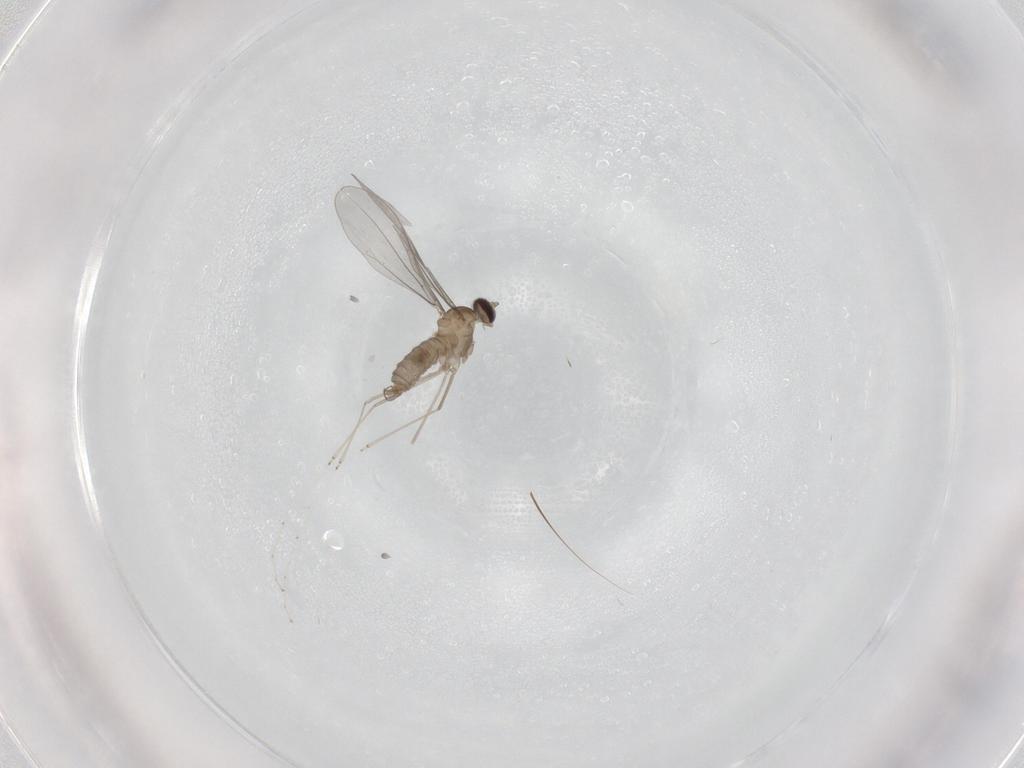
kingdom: Animalia
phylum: Arthropoda
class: Insecta
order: Diptera
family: Chironomidae
